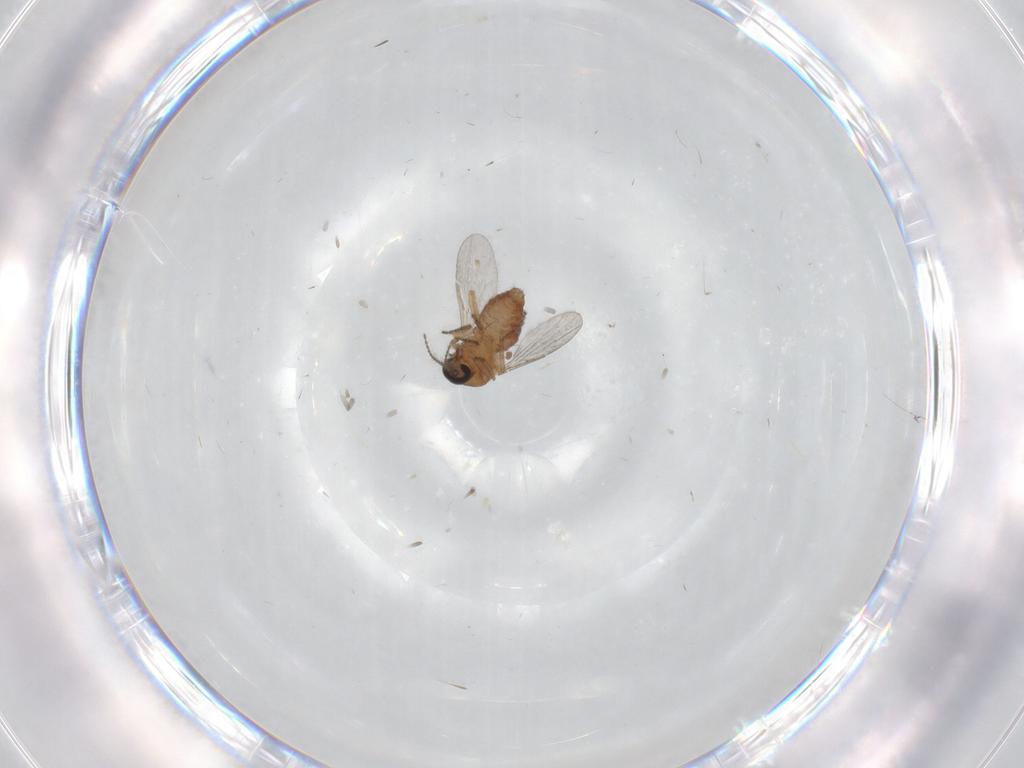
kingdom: Animalia
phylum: Arthropoda
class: Insecta
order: Diptera
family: Ceratopogonidae
